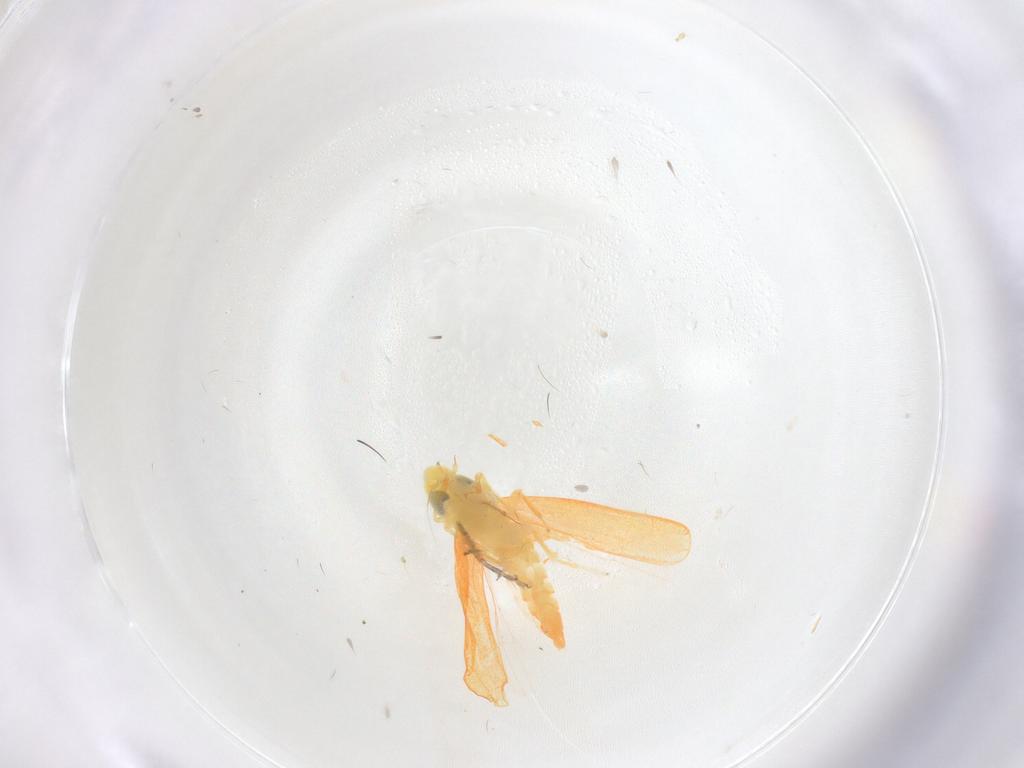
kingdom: Animalia
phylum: Arthropoda
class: Insecta
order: Hemiptera
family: Cicadellidae
